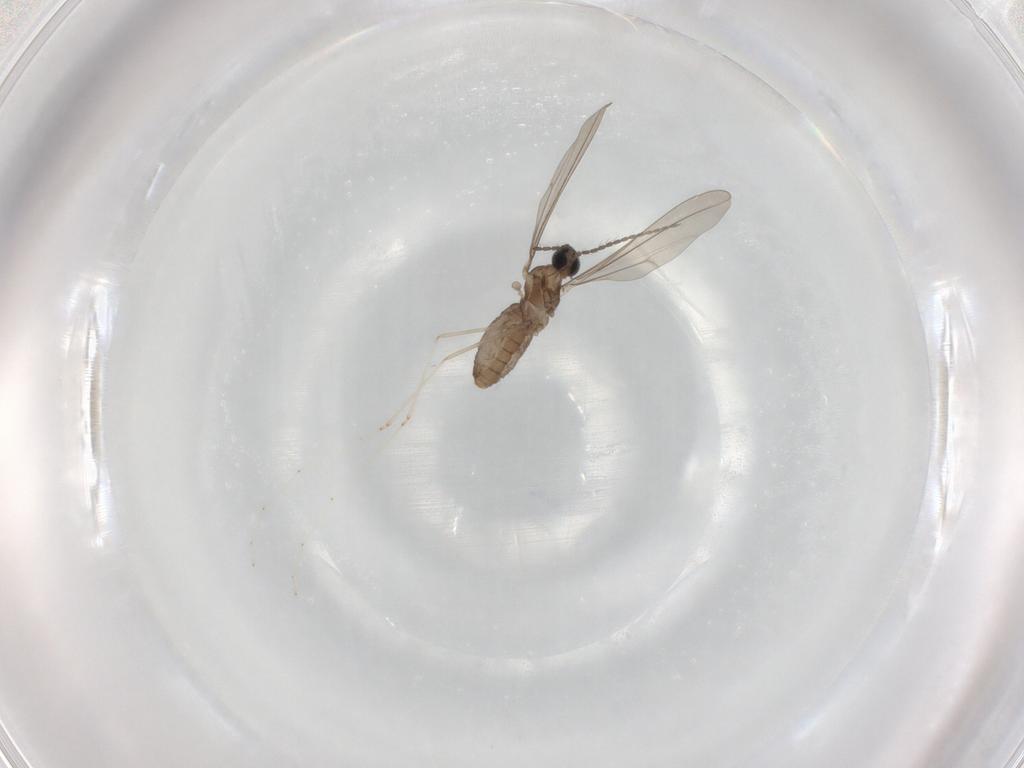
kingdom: Animalia
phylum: Arthropoda
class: Insecta
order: Diptera
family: Cecidomyiidae
